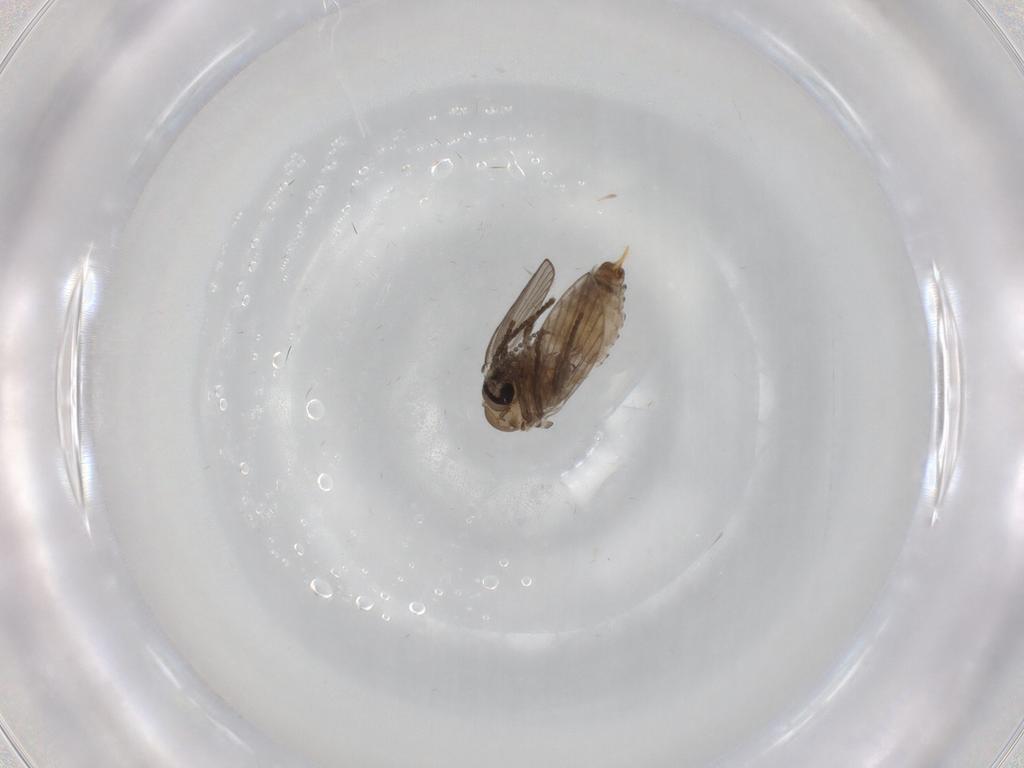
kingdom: Animalia
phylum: Arthropoda
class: Insecta
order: Diptera
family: Psychodidae
